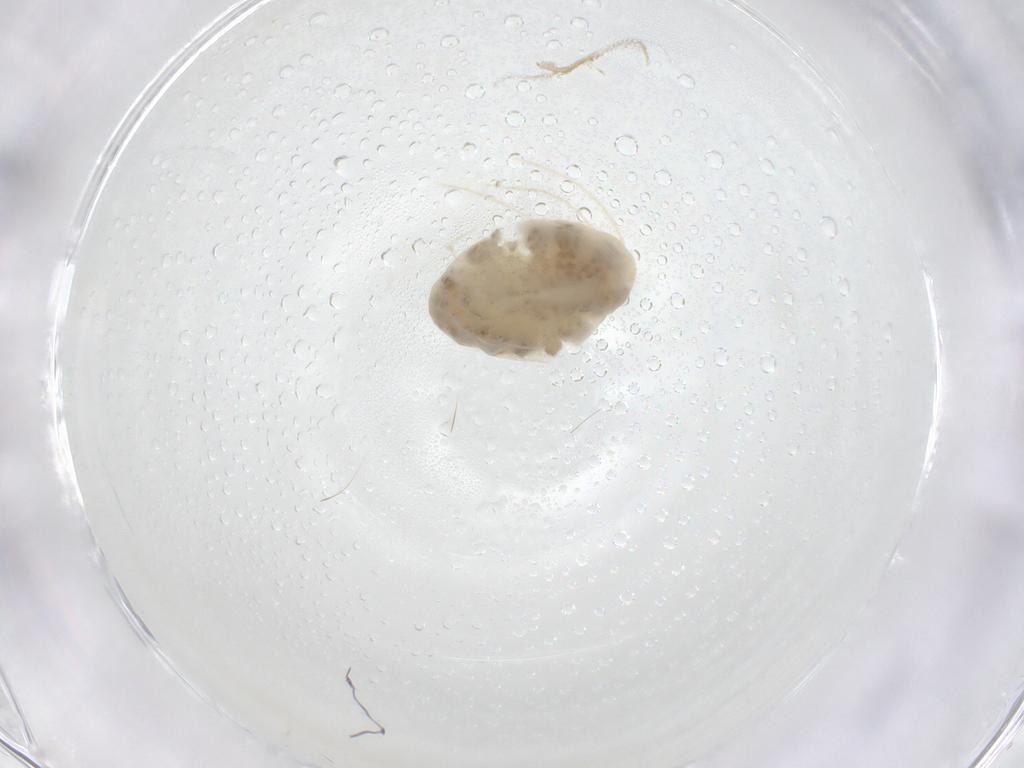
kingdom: Animalia
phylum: Arthropoda
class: Arachnida
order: Trombidiformes
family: Erythraeidae
